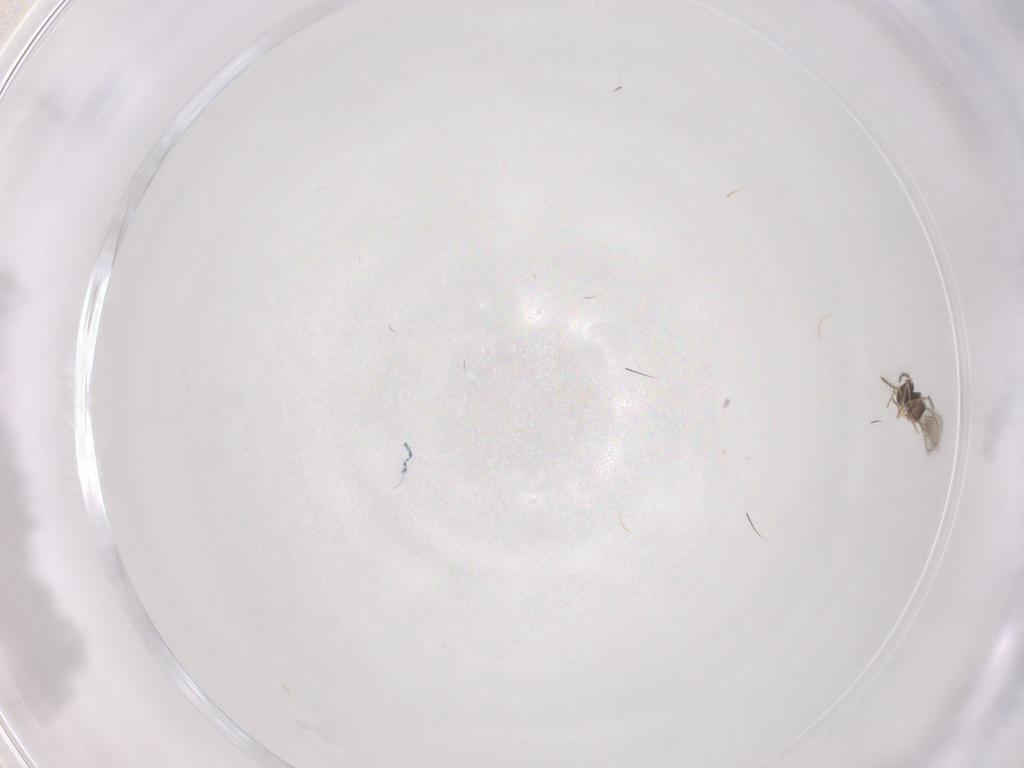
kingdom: Animalia
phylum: Arthropoda
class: Insecta
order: Hymenoptera
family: Eulophidae
